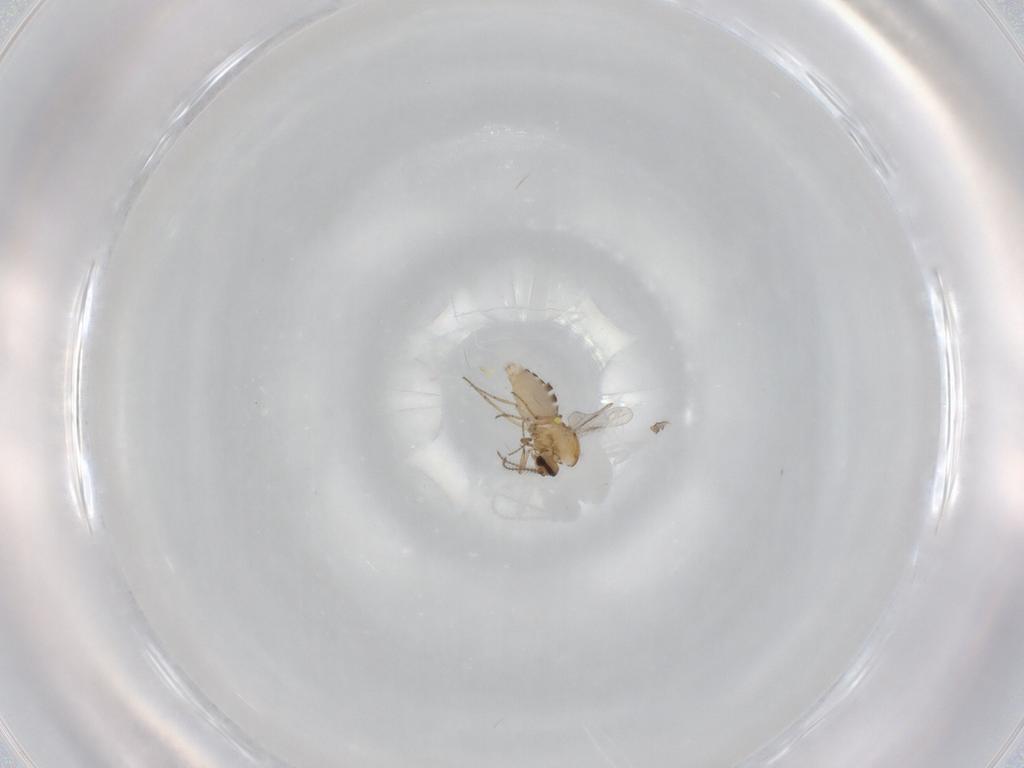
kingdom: Animalia
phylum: Arthropoda
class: Insecta
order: Diptera
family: Ceratopogonidae
